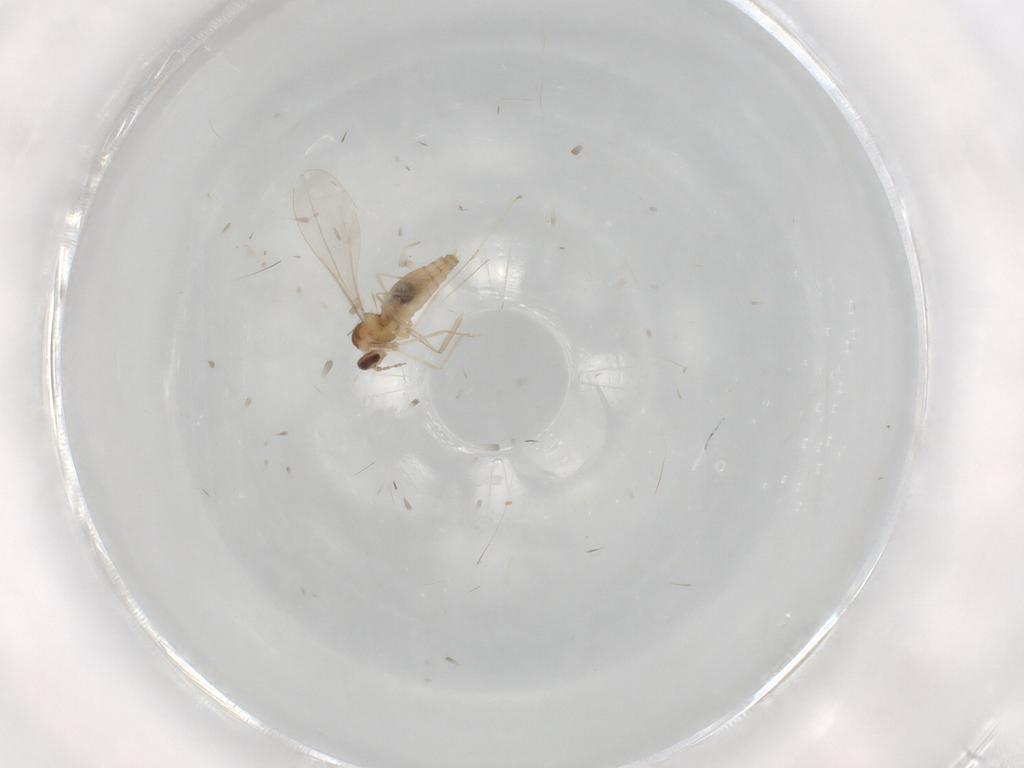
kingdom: Animalia
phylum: Arthropoda
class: Insecta
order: Diptera
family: Cecidomyiidae
